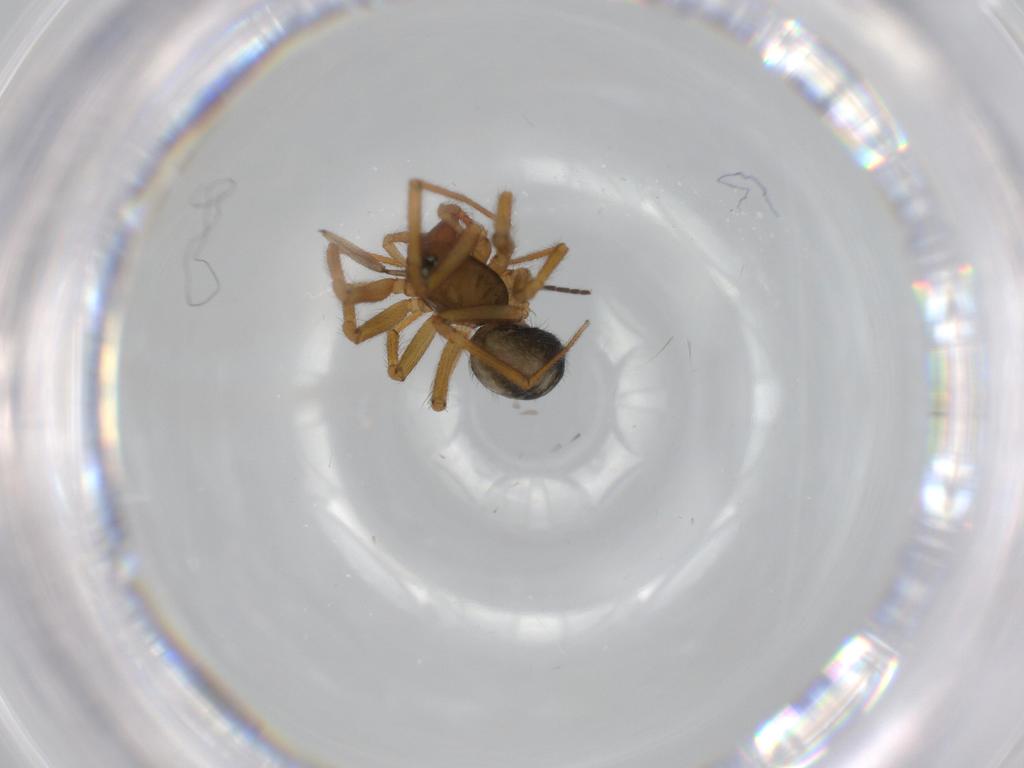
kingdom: Animalia
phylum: Arthropoda
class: Arachnida
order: Araneae
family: Linyphiidae
